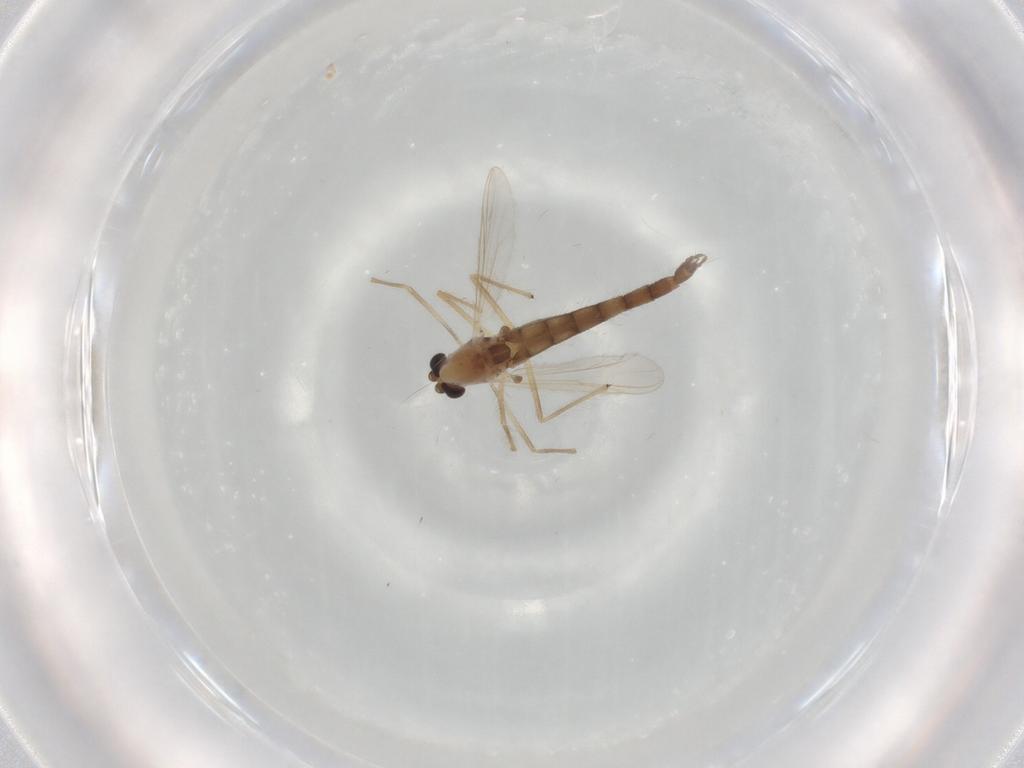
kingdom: Animalia
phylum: Arthropoda
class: Insecta
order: Diptera
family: Chironomidae
